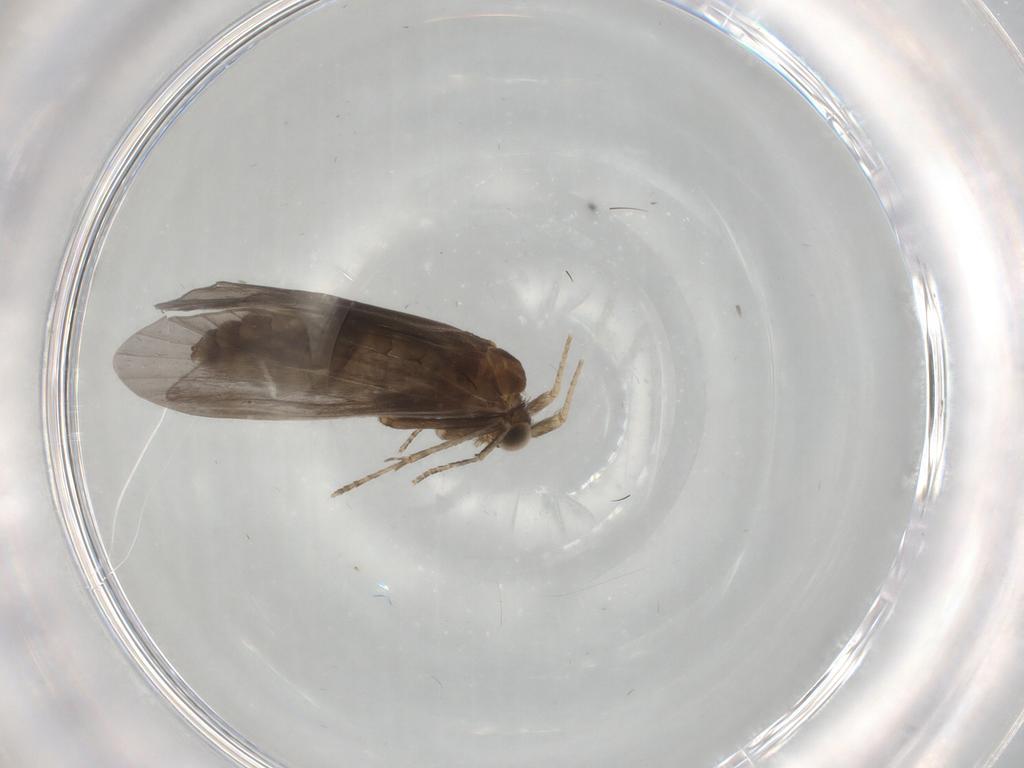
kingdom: Animalia
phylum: Arthropoda
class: Insecta
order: Trichoptera
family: Helicopsychidae
